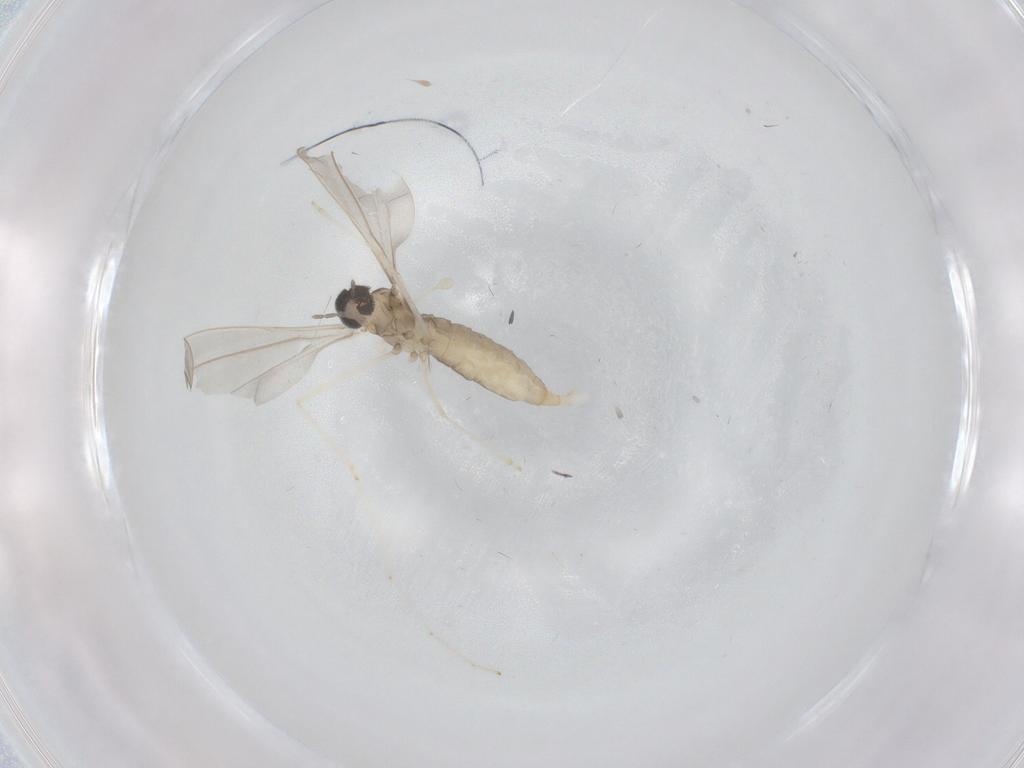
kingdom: Animalia
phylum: Arthropoda
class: Insecta
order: Diptera
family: Cecidomyiidae
